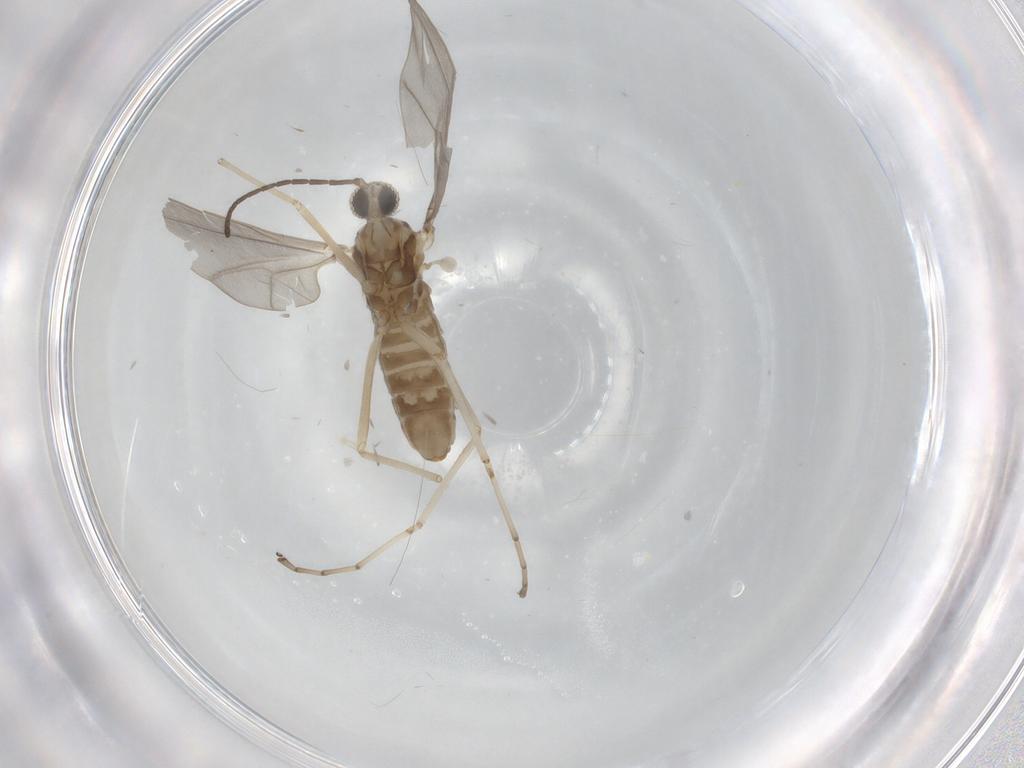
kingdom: Animalia
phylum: Arthropoda
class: Insecta
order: Diptera
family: Cecidomyiidae
